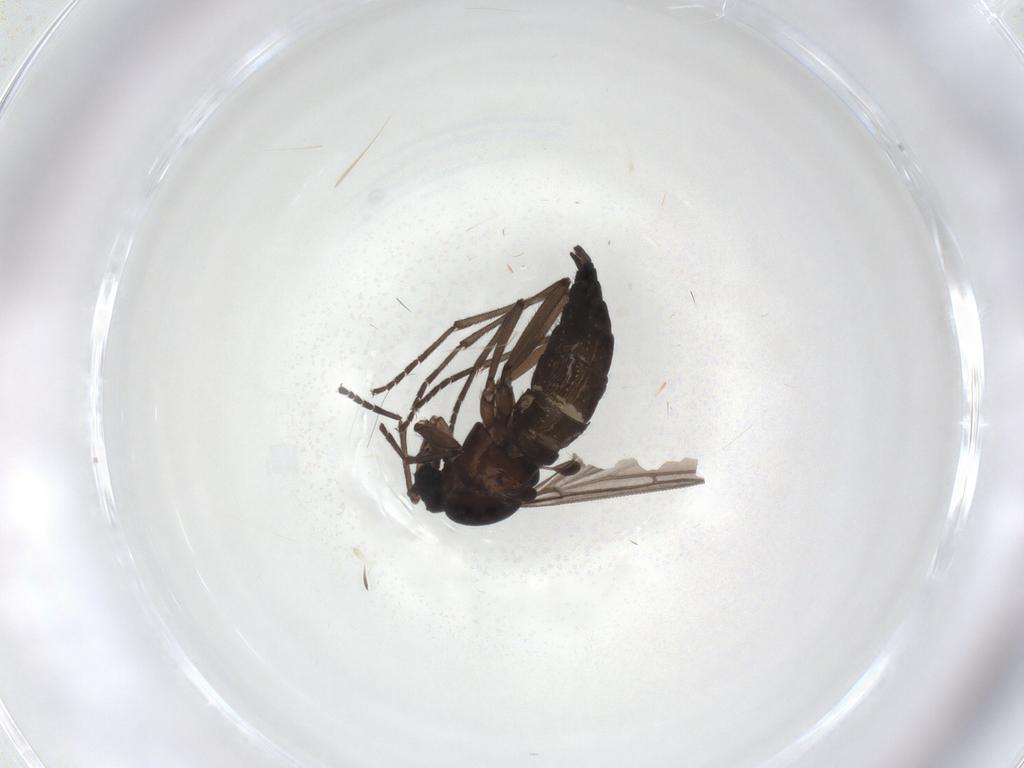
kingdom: Animalia
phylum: Arthropoda
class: Insecta
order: Diptera
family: Sciaridae
